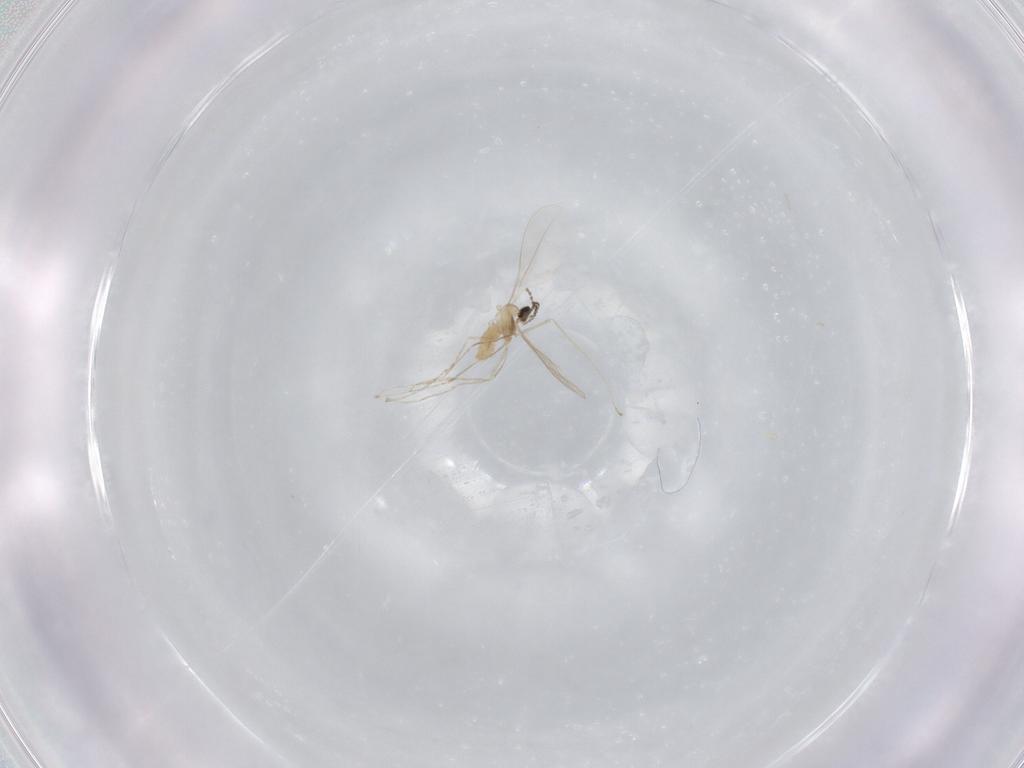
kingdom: Animalia
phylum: Arthropoda
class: Insecta
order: Diptera
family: Cecidomyiidae
